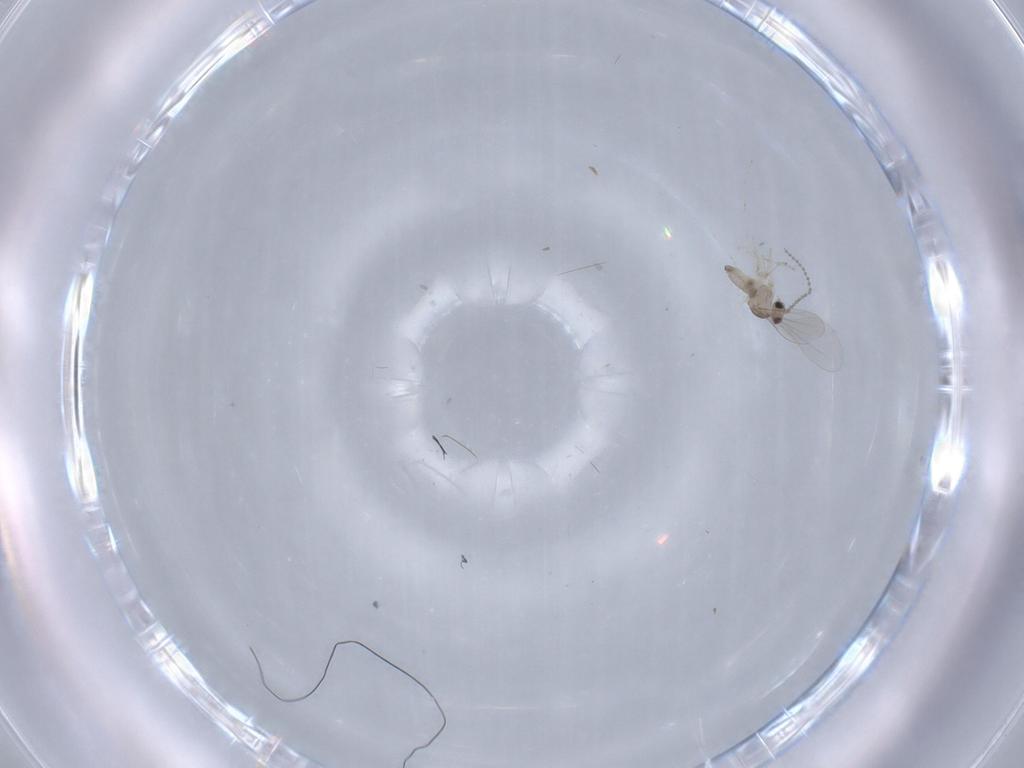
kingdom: Animalia
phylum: Arthropoda
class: Insecta
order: Diptera
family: Cecidomyiidae
